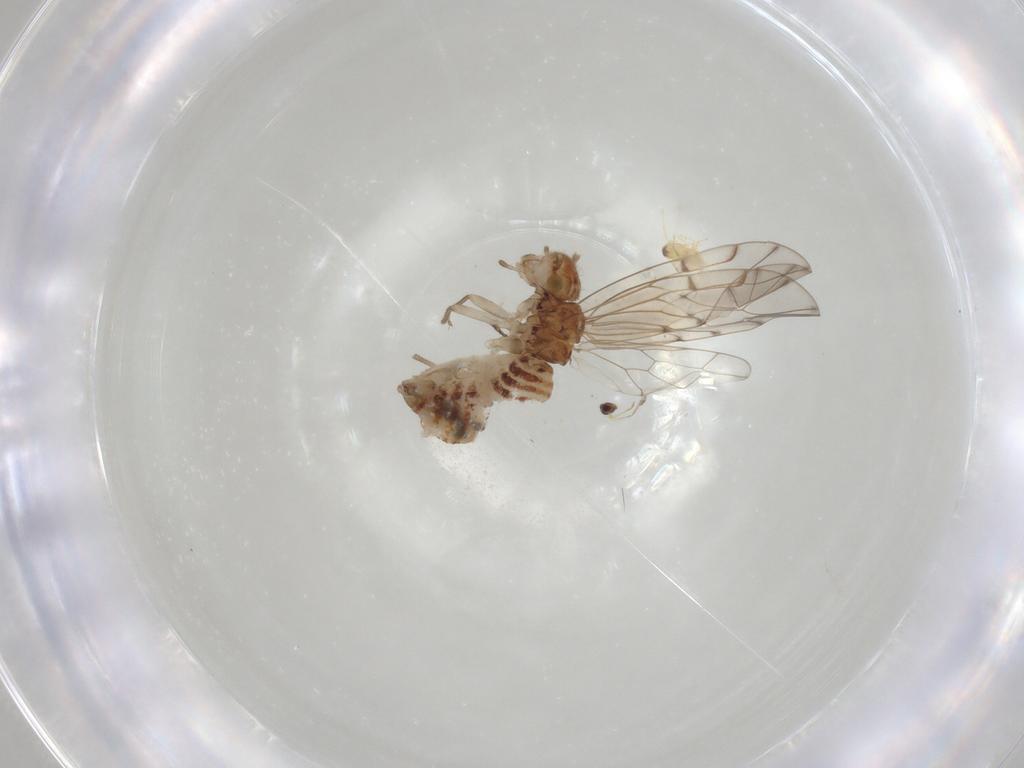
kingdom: Animalia
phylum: Arthropoda
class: Insecta
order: Hymenoptera
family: Mymaridae
